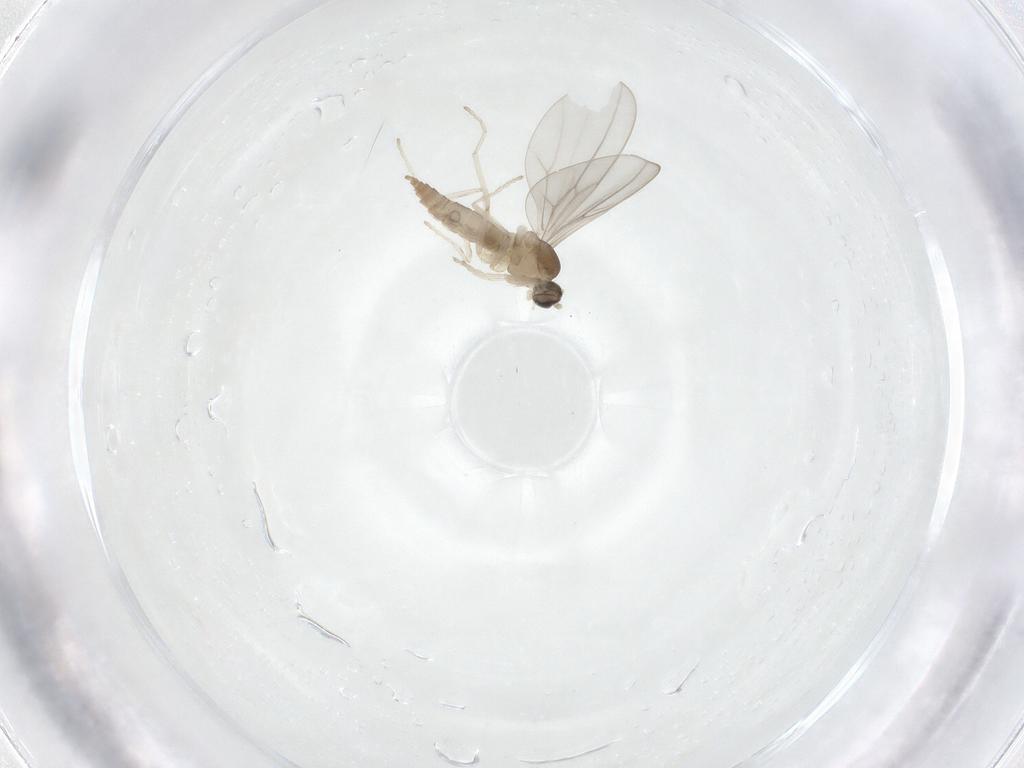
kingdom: Animalia
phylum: Arthropoda
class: Insecta
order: Diptera
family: Cecidomyiidae
